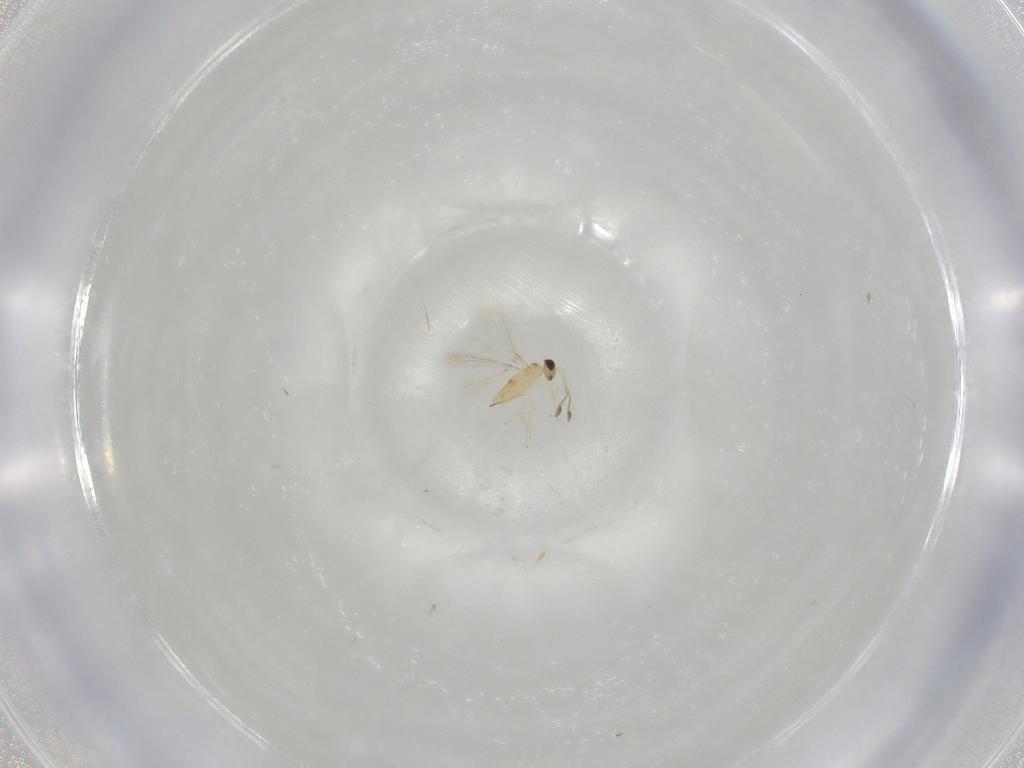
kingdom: Animalia
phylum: Arthropoda
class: Insecta
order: Hymenoptera
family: Mymaridae
